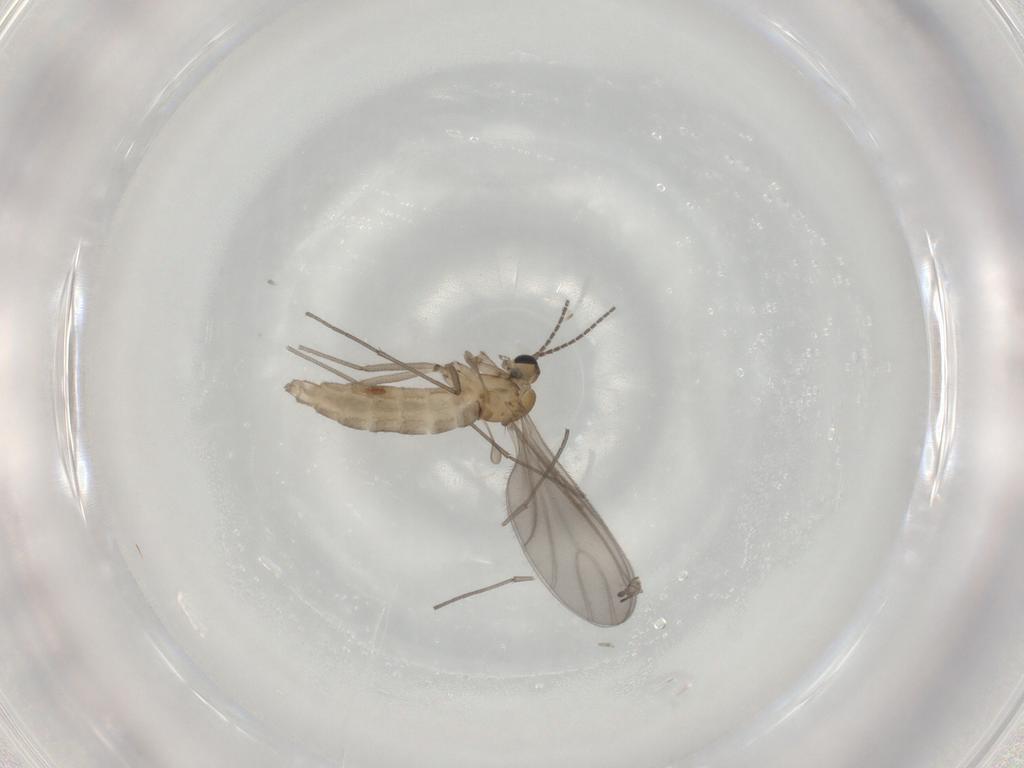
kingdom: Animalia
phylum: Arthropoda
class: Insecta
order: Diptera
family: Sciaridae
